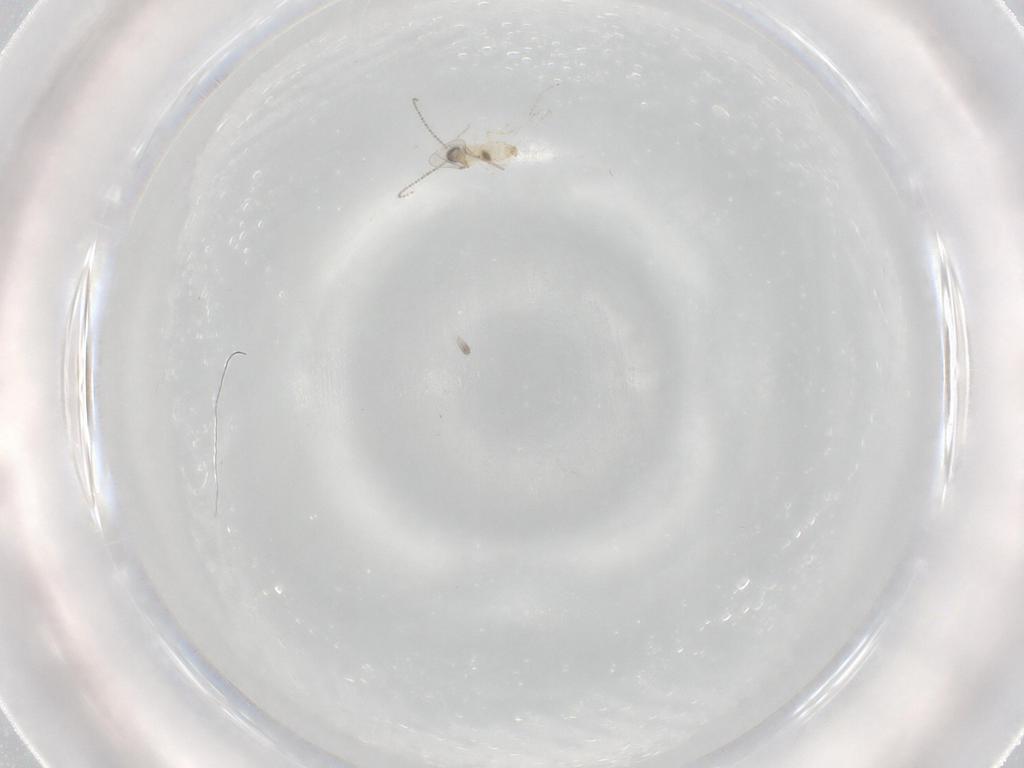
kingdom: Animalia
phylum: Arthropoda
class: Insecta
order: Diptera
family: Cecidomyiidae
